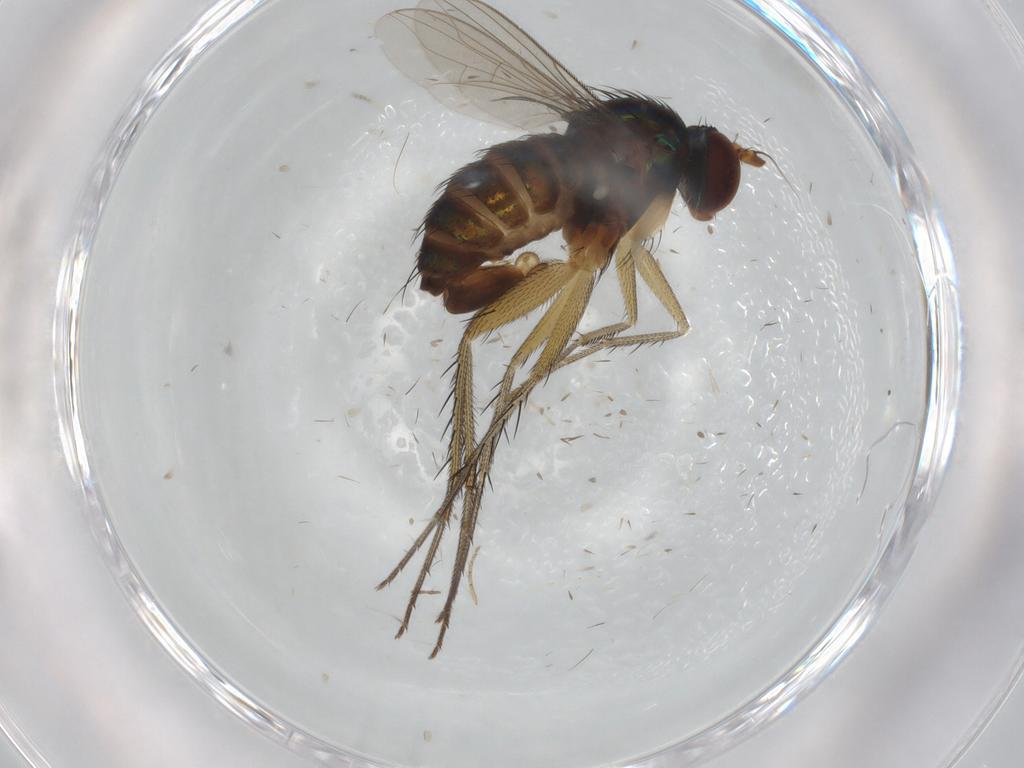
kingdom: Animalia
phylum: Arthropoda
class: Insecta
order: Diptera
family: Dolichopodidae
